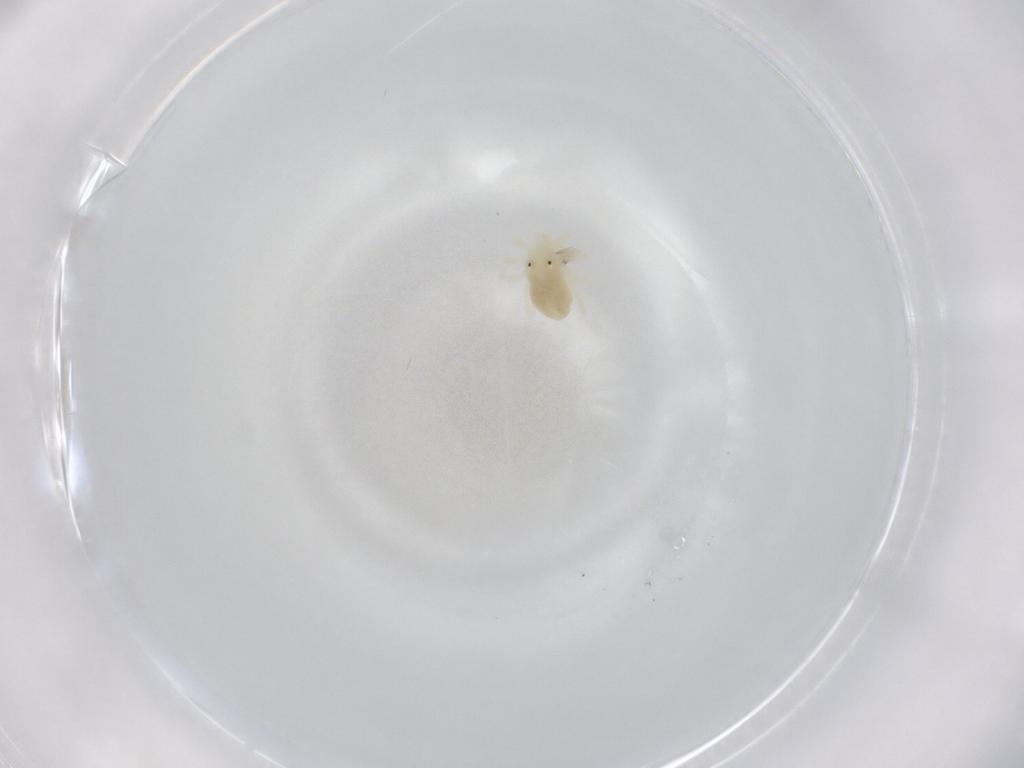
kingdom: Animalia
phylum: Arthropoda
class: Arachnida
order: Trombidiformes
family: Anystidae
